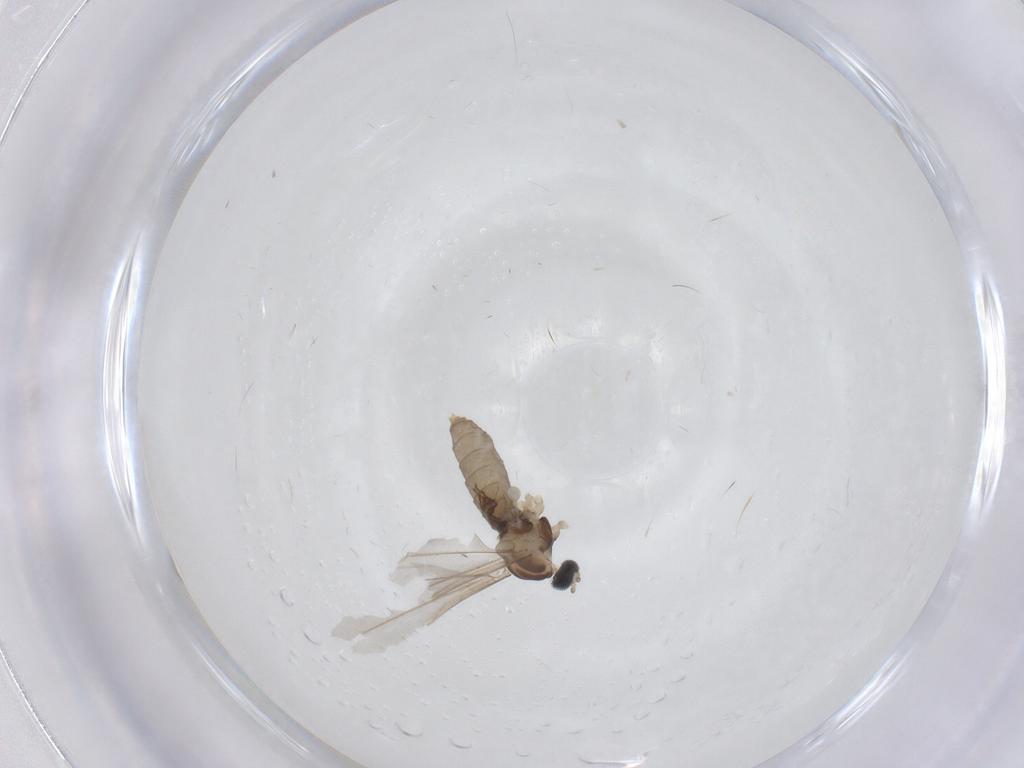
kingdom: Animalia
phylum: Arthropoda
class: Insecta
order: Diptera
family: Cecidomyiidae
